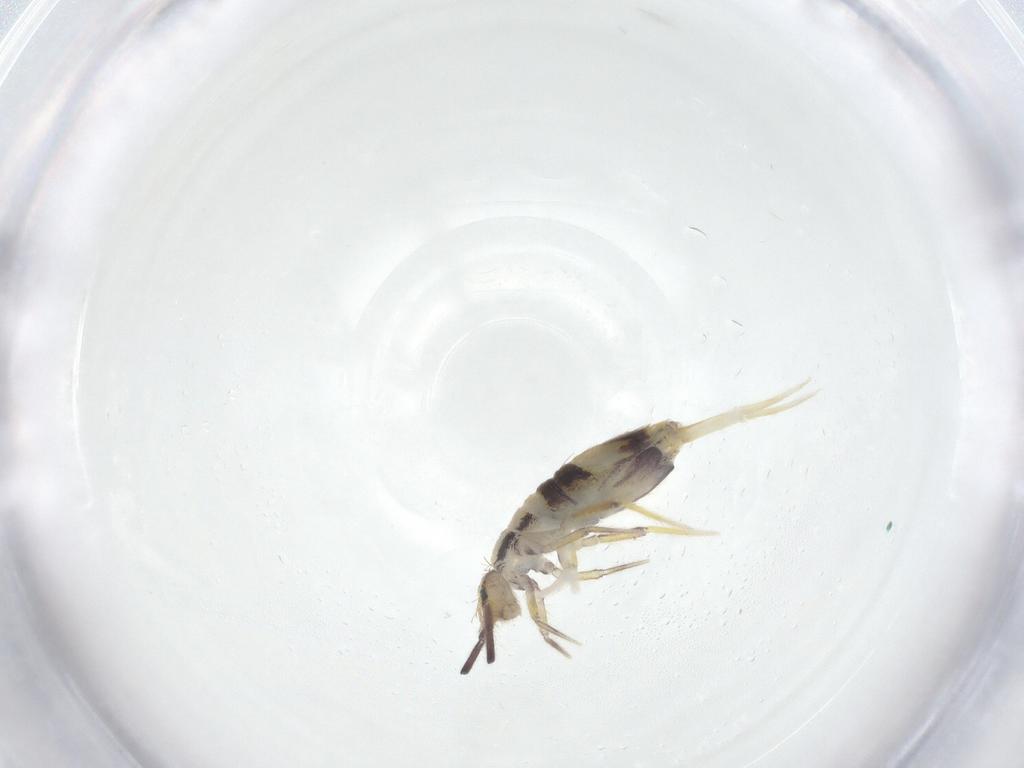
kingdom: Animalia
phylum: Arthropoda
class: Collembola
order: Entomobryomorpha
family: Entomobryidae
